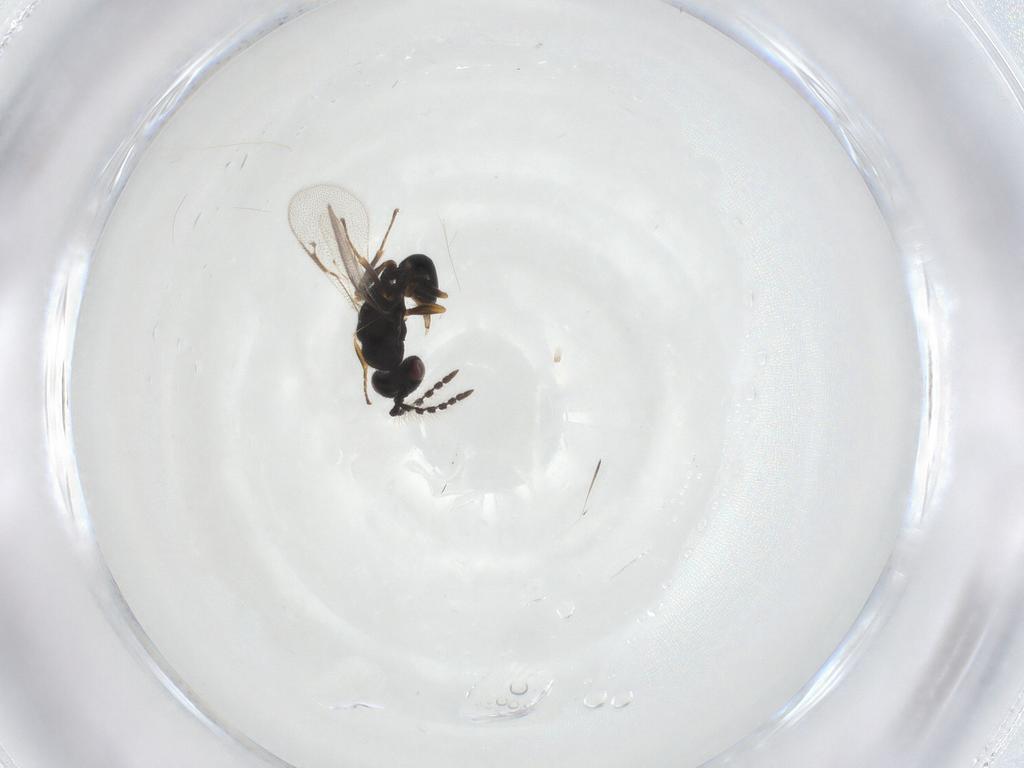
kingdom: Animalia
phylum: Arthropoda
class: Insecta
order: Hymenoptera
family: Eurytomidae
